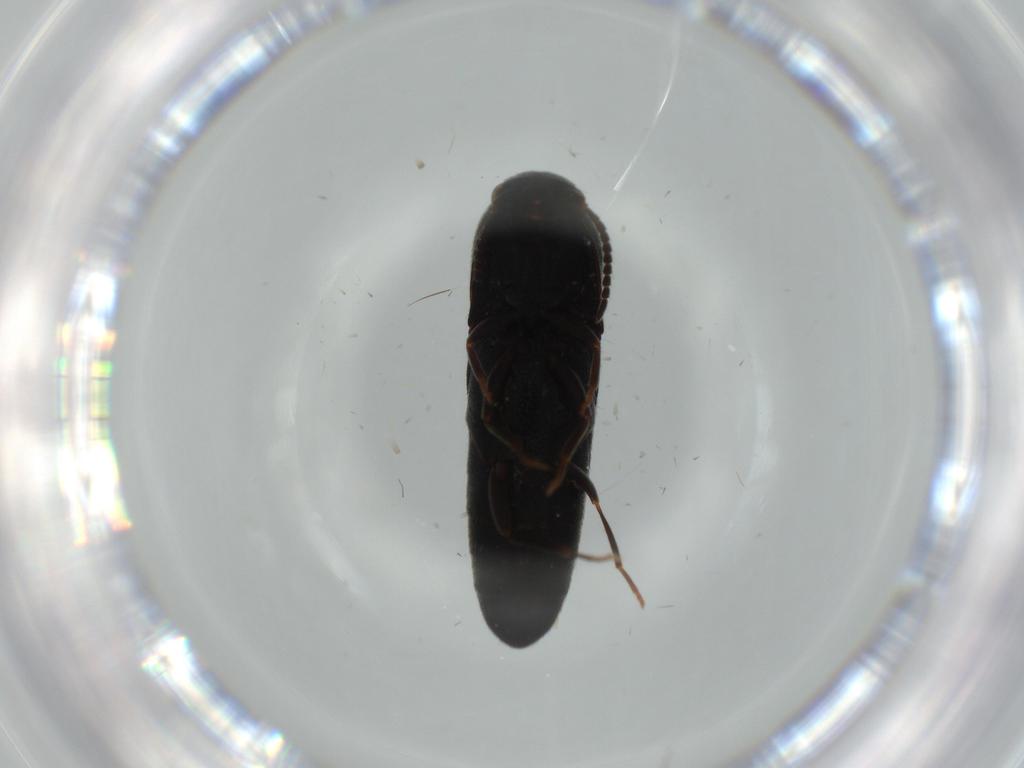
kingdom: Animalia
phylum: Arthropoda
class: Insecta
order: Coleoptera
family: Eucnemidae
